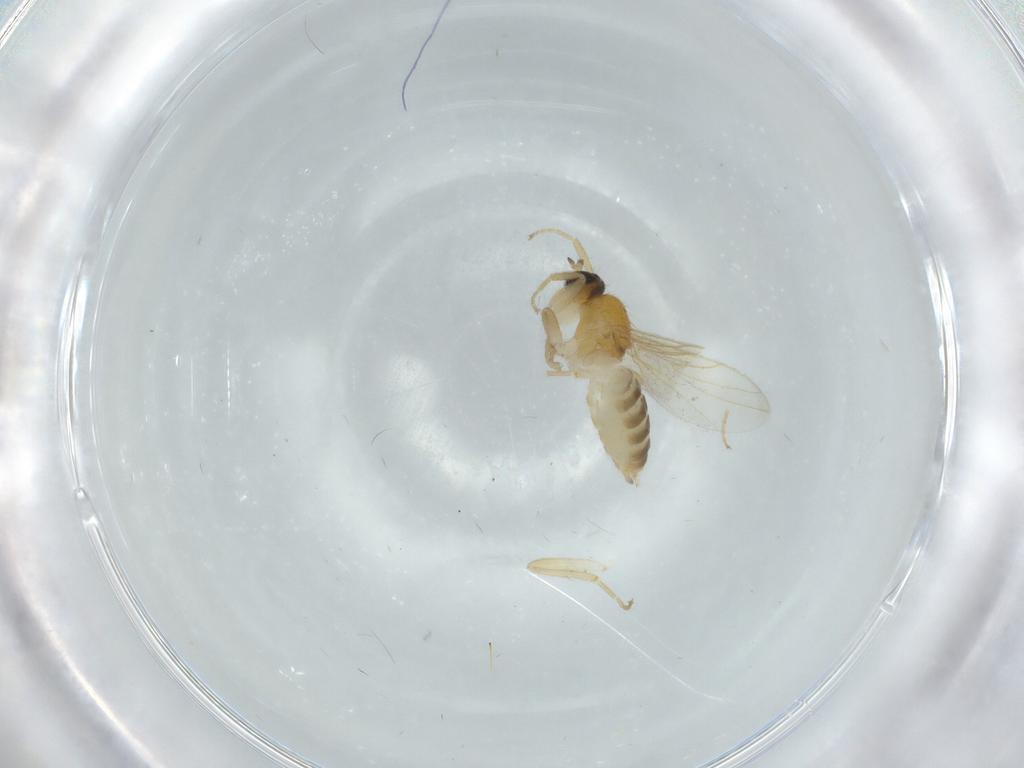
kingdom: Animalia
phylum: Arthropoda
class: Insecta
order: Diptera
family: Hybotidae
